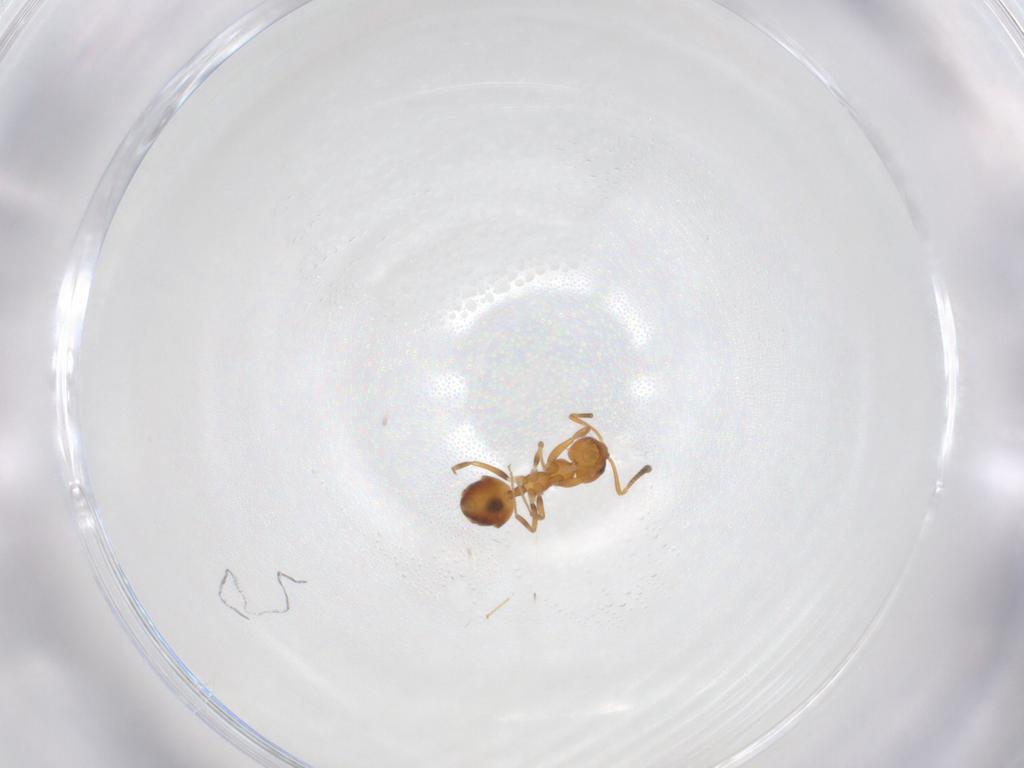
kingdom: Animalia
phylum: Arthropoda
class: Insecta
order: Hymenoptera
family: Formicidae
